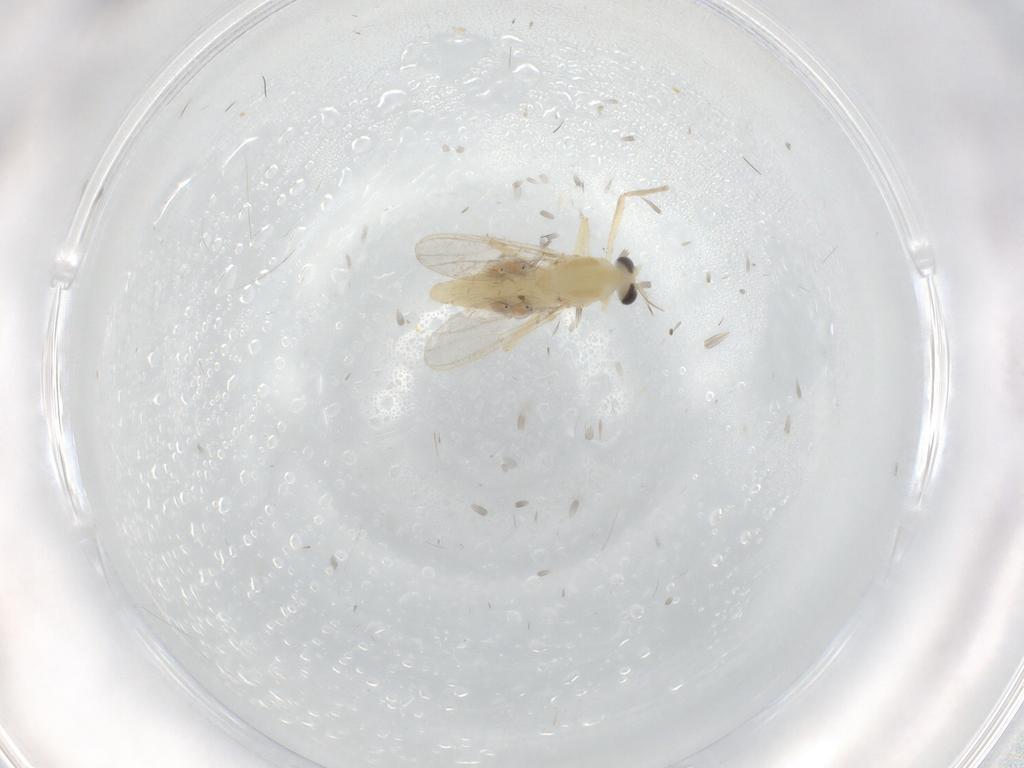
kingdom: Animalia
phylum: Arthropoda
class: Insecta
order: Diptera
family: Chironomidae
